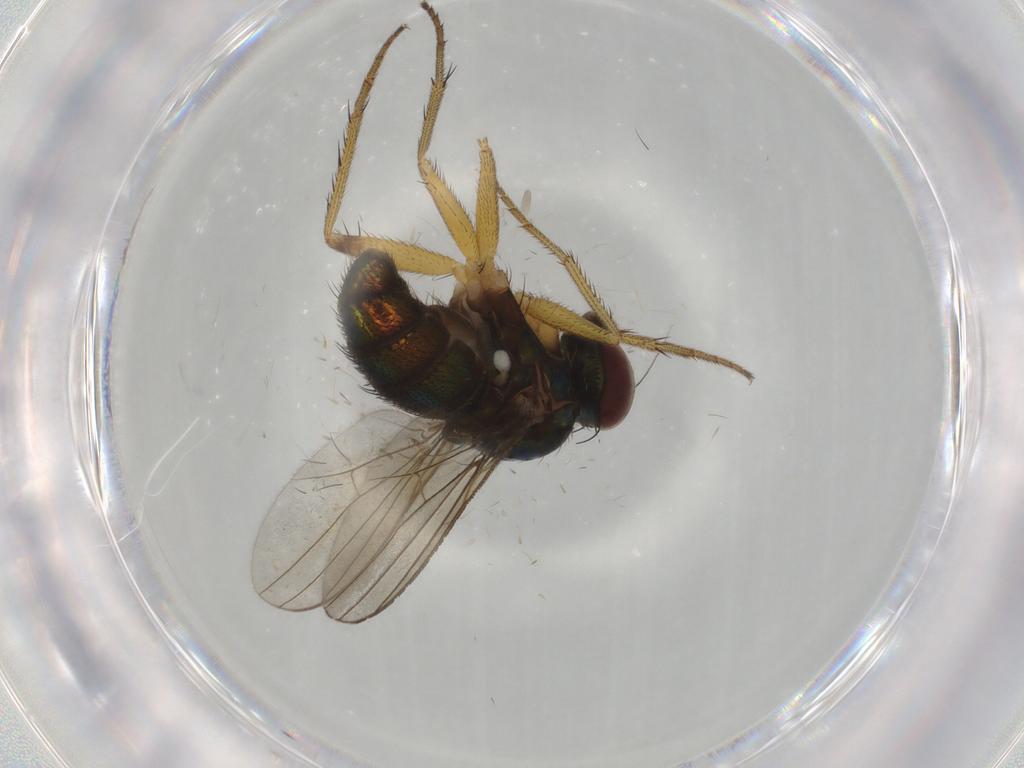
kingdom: Animalia
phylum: Arthropoda
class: Insecta
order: Diptera
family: Dolichopodidae
